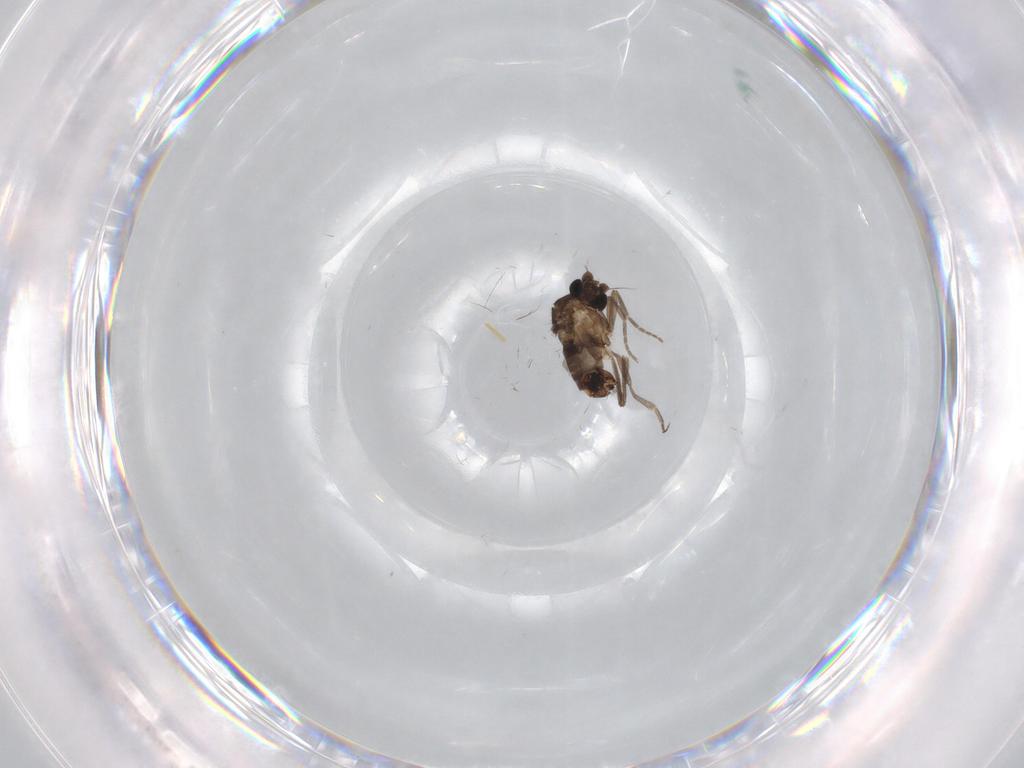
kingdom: Animalia
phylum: Arthropoda
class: Insecta
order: Diptera
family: Phoridae
